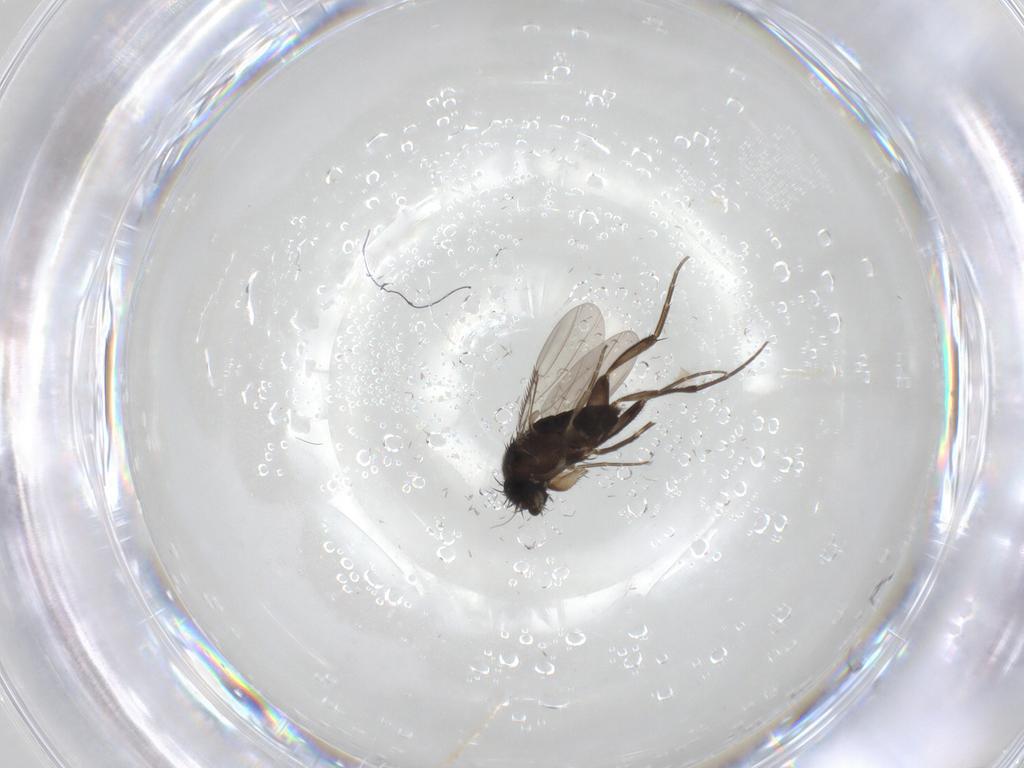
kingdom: Animalia
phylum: Arthropoda
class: Insecta
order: Diptera
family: Phoridae
